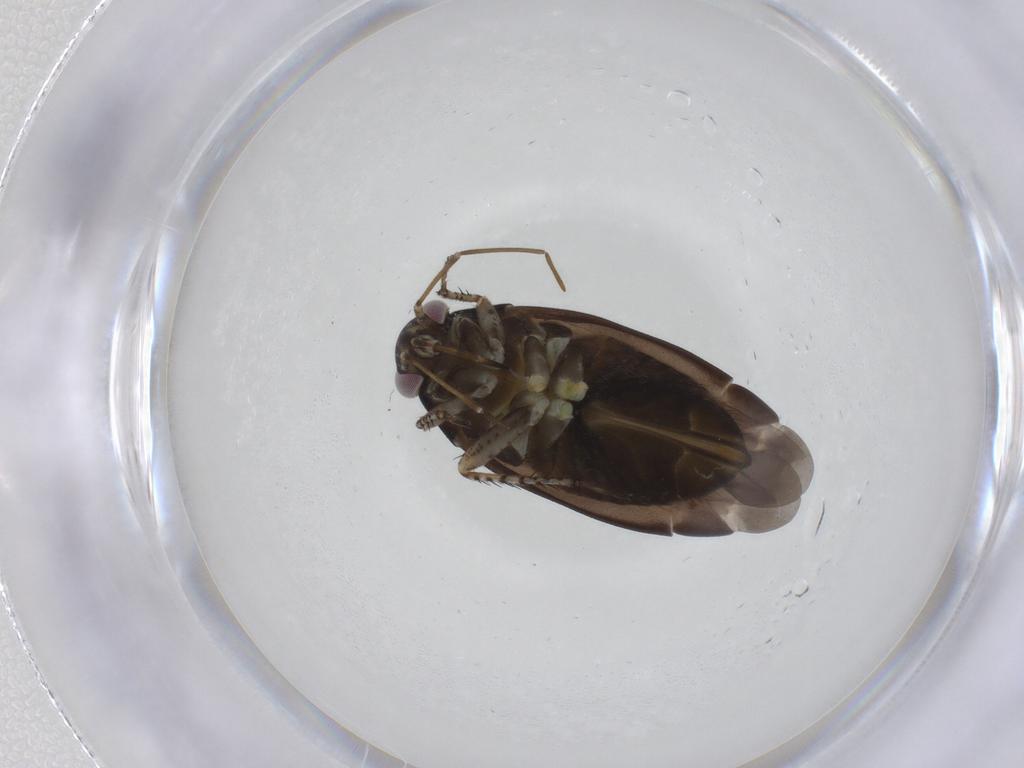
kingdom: Animalia
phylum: Arthropoda
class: Insecta
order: Hemiptera
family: Miridae
